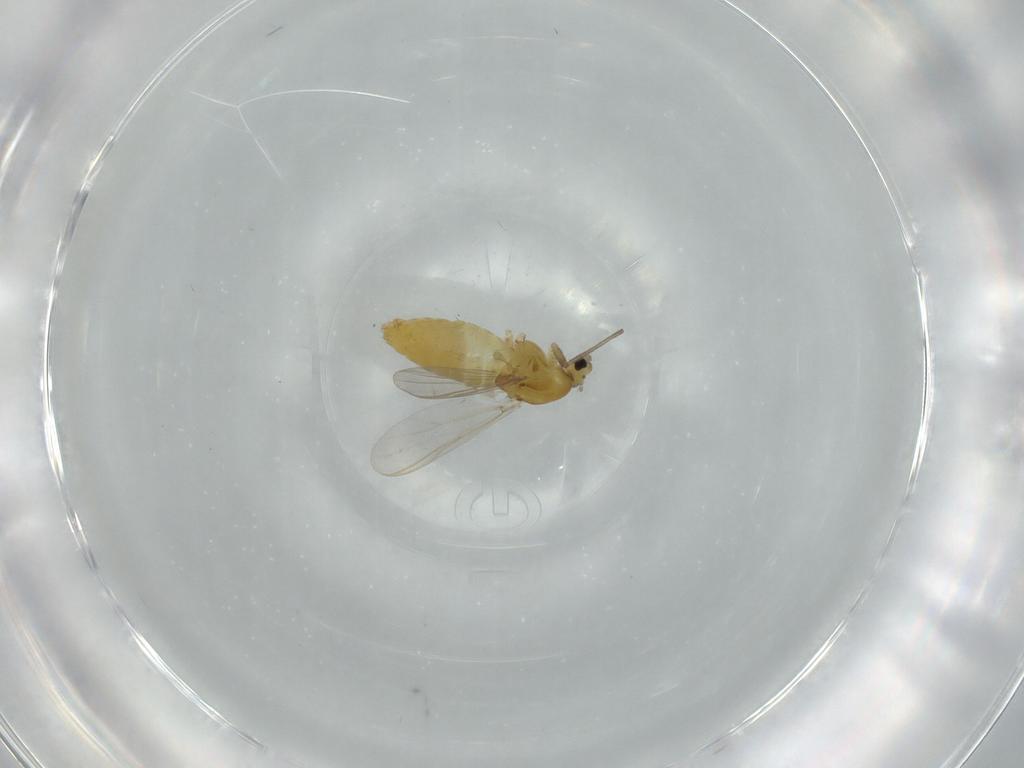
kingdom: Animalia
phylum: Arthropoda
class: Insecta
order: Diptera
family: Chironomidae
